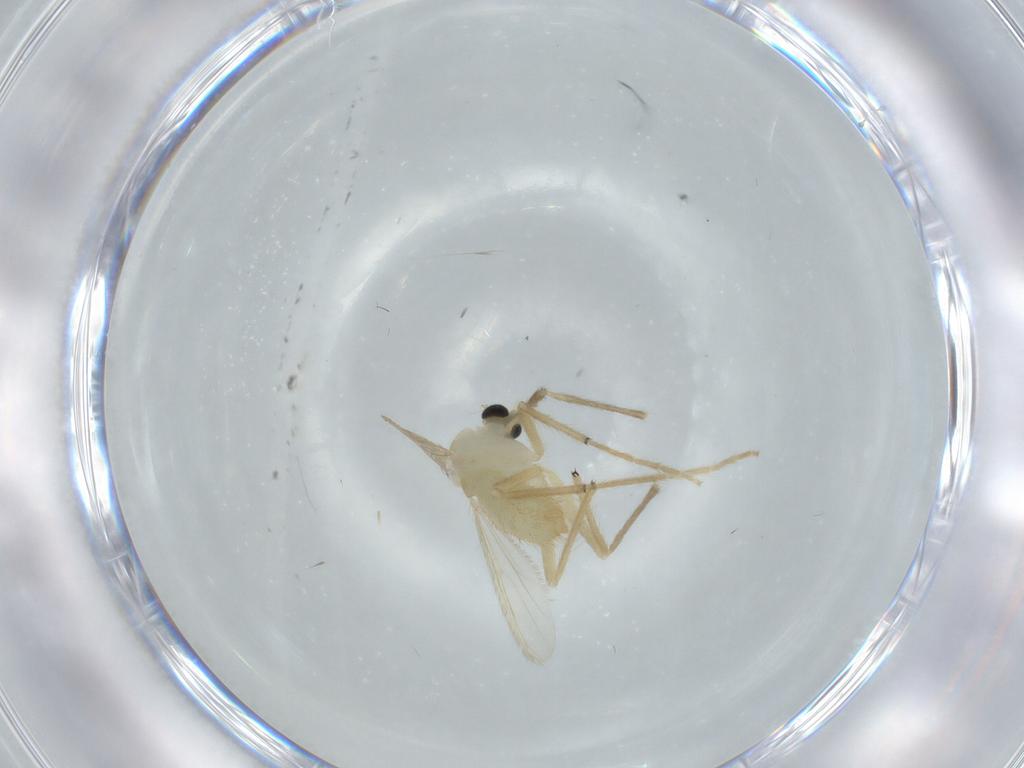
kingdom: Animalia
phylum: Arthropoda
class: Insecta
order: Diptera
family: Chironomidae
